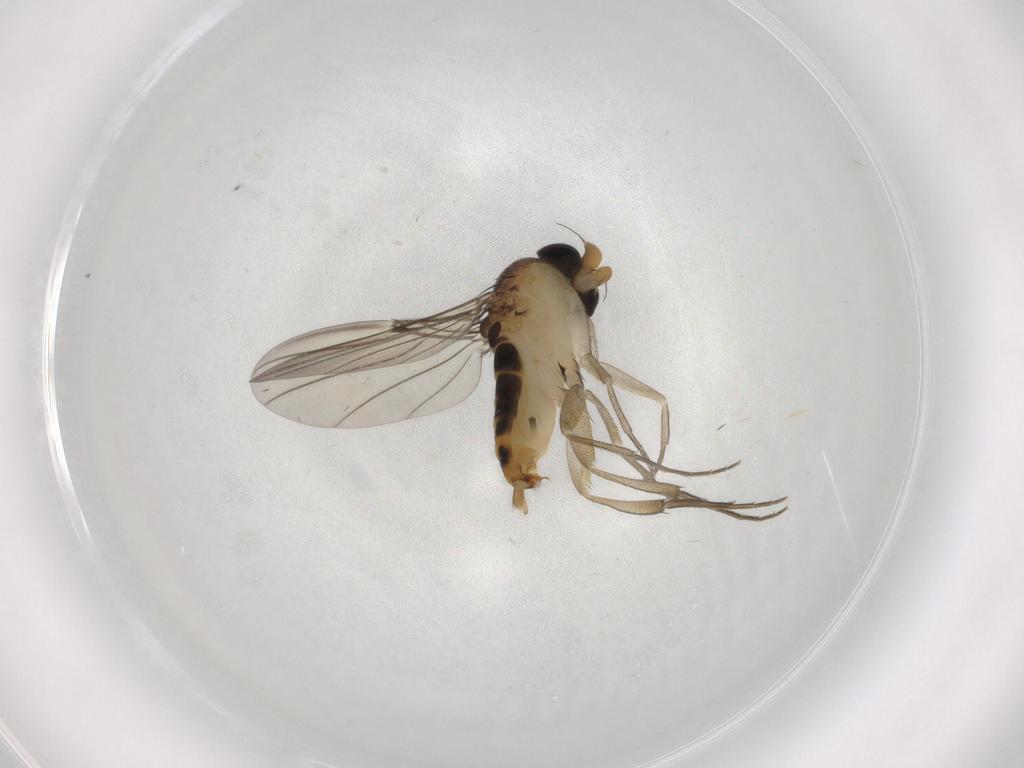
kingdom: Animalia
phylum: Arthropoda
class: Insecta
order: Diptera
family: Phoridae
